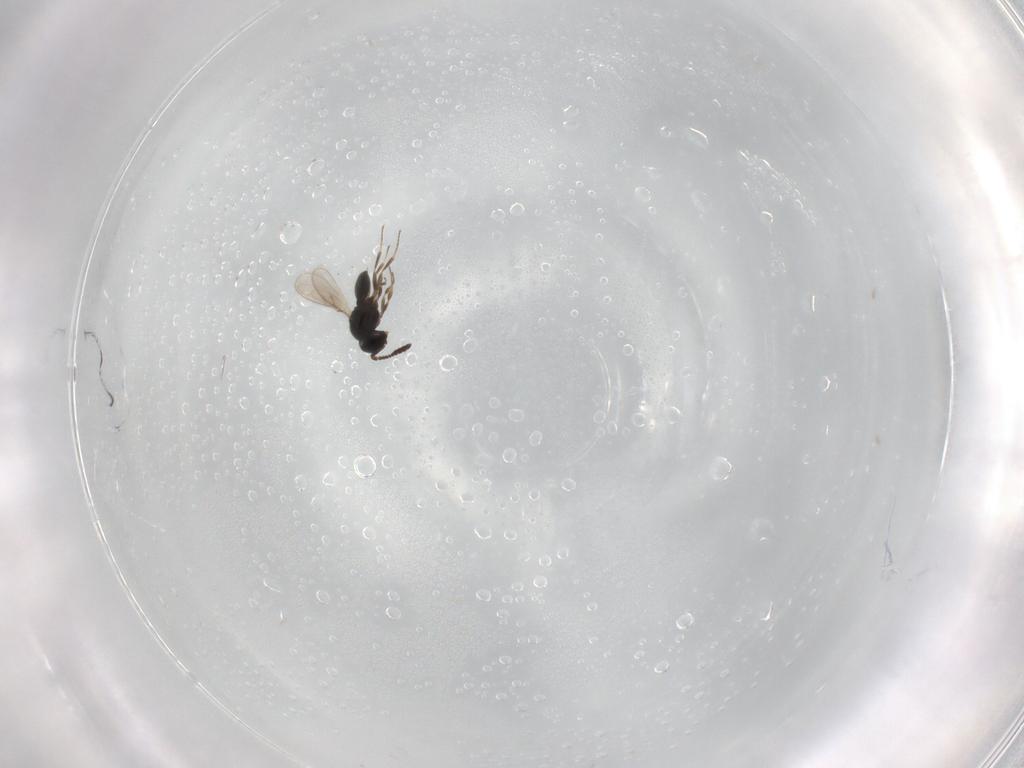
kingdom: Animalia
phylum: Arthropoda
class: Insecta
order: Hymenoptera
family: Scelionidae
